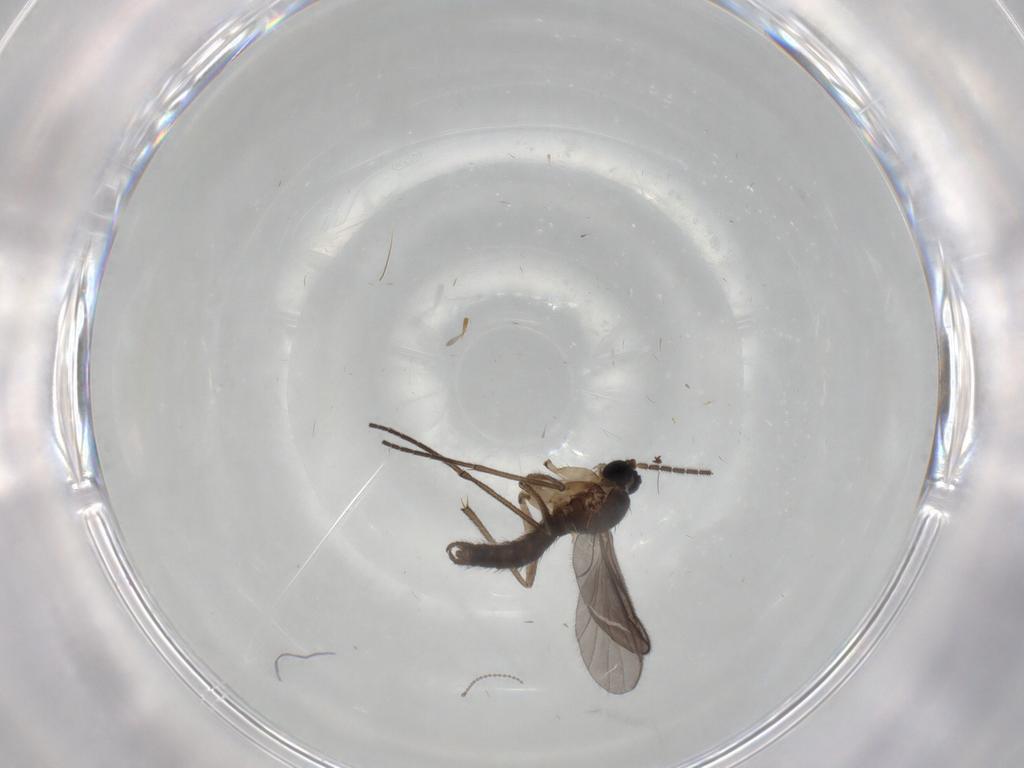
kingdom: Animalia
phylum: Arthropoda
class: Insecta
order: Diptera
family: Sciaridae
